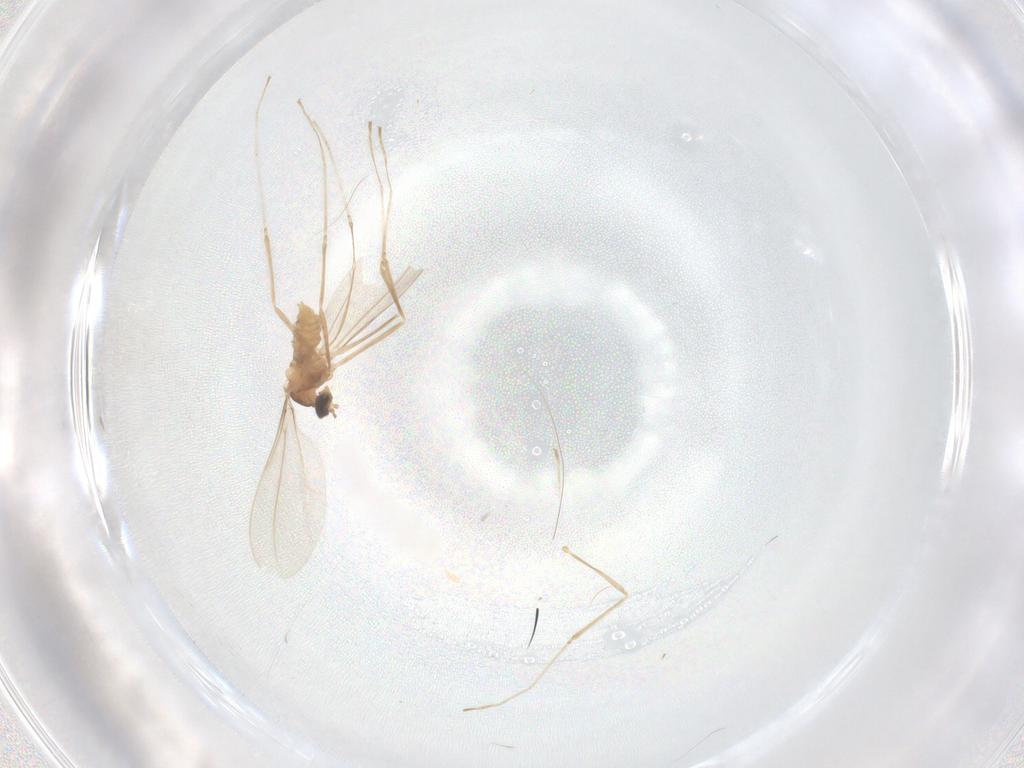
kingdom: Animalia
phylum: Arthropoda
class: Insecta
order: Diptera
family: Cecidomyiidae
